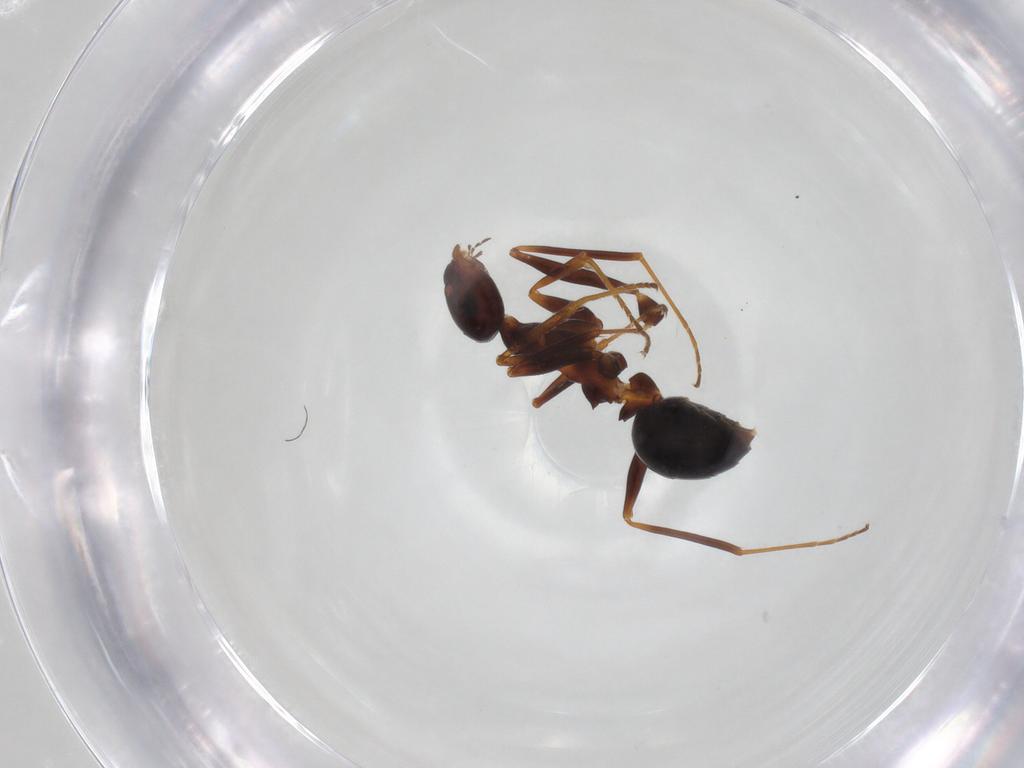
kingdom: Animalia
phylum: Arthropoda
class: Insecta
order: Hymenoptera
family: Formicidae
